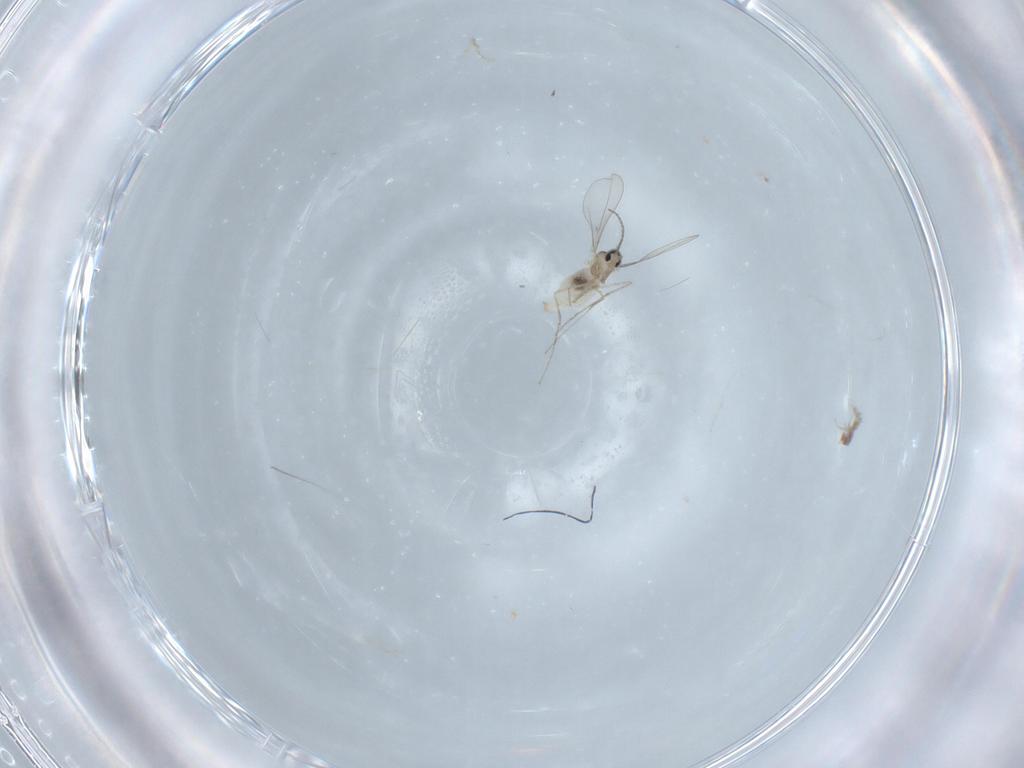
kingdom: Animalia
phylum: Arthropoda
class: Insecta
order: Diptera
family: Cecidomyiidae
